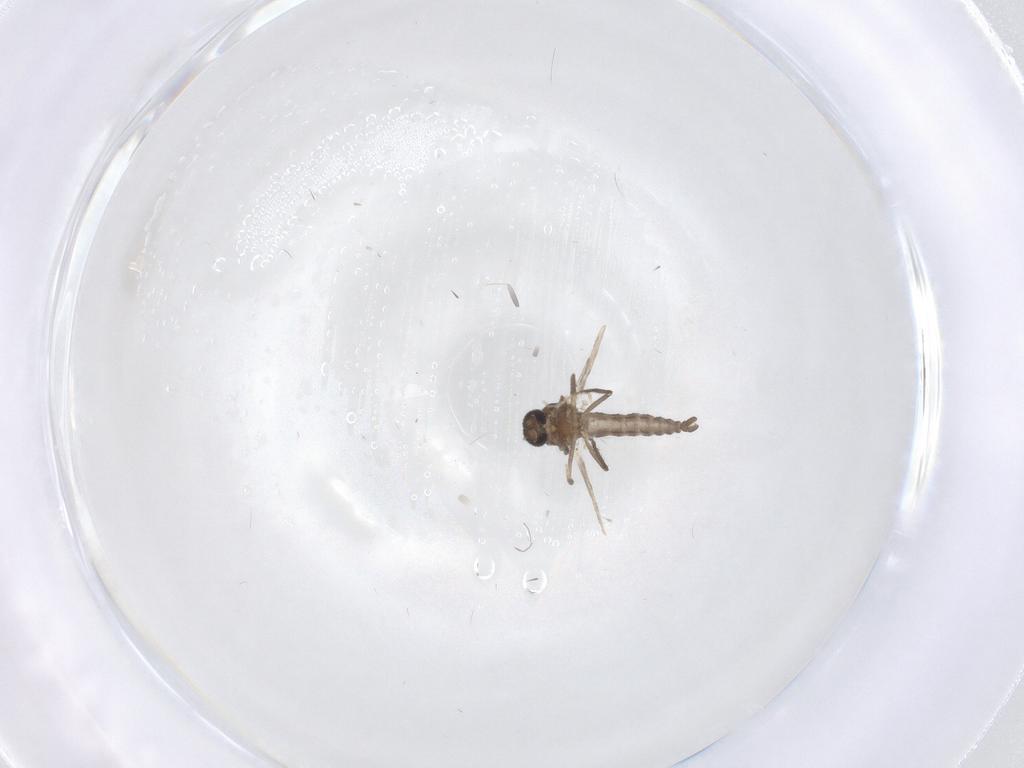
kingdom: Animalia
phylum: Arthropoda
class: Insecta
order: Diptera
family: Ceratopogonidae
